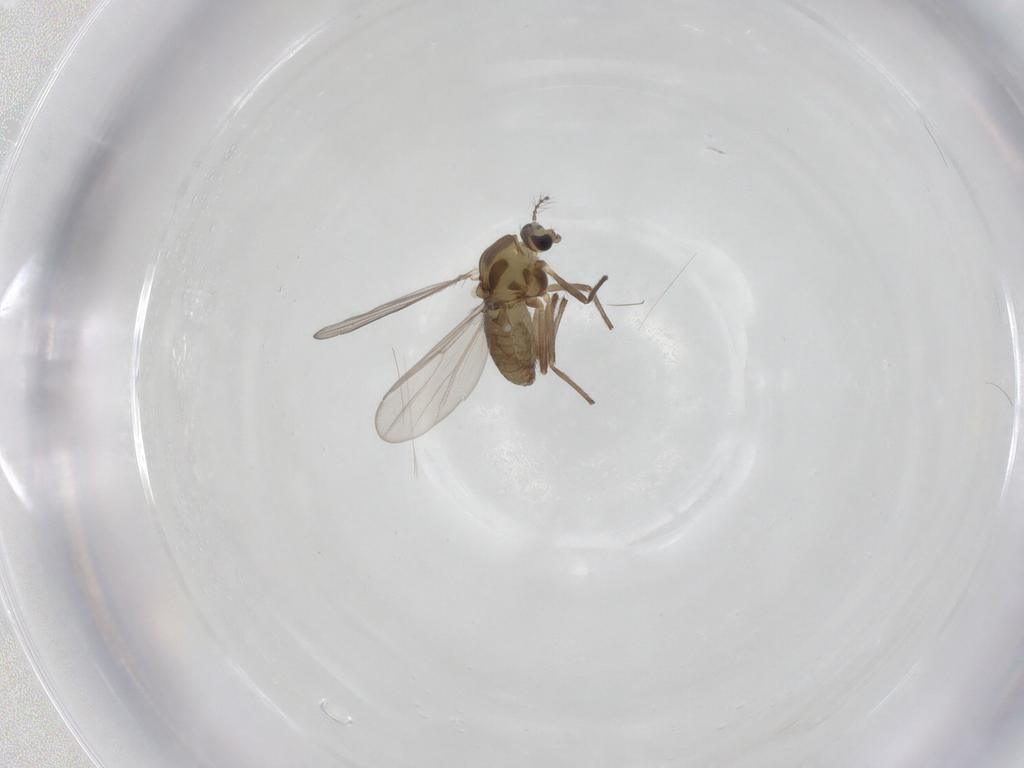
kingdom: Animalia
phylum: Arthropoda
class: Insecta
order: Diptera
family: Chironomidae
